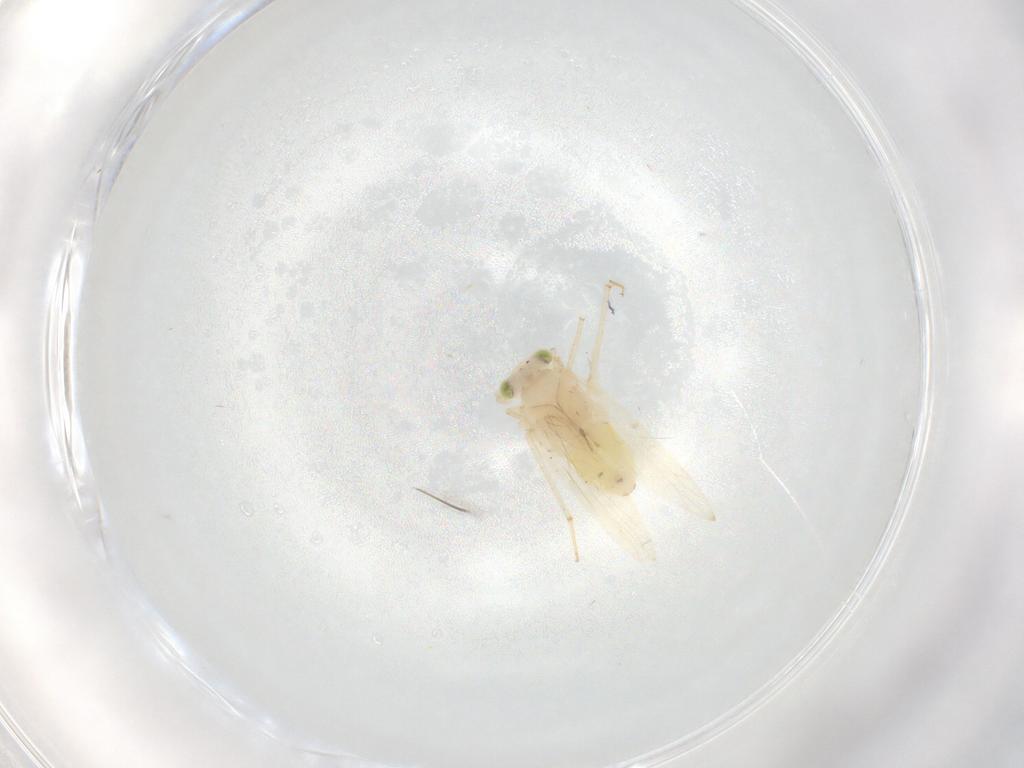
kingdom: Animalia
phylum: Arthropoda
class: Insecta
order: Psocodea
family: Lepidopsocidae
